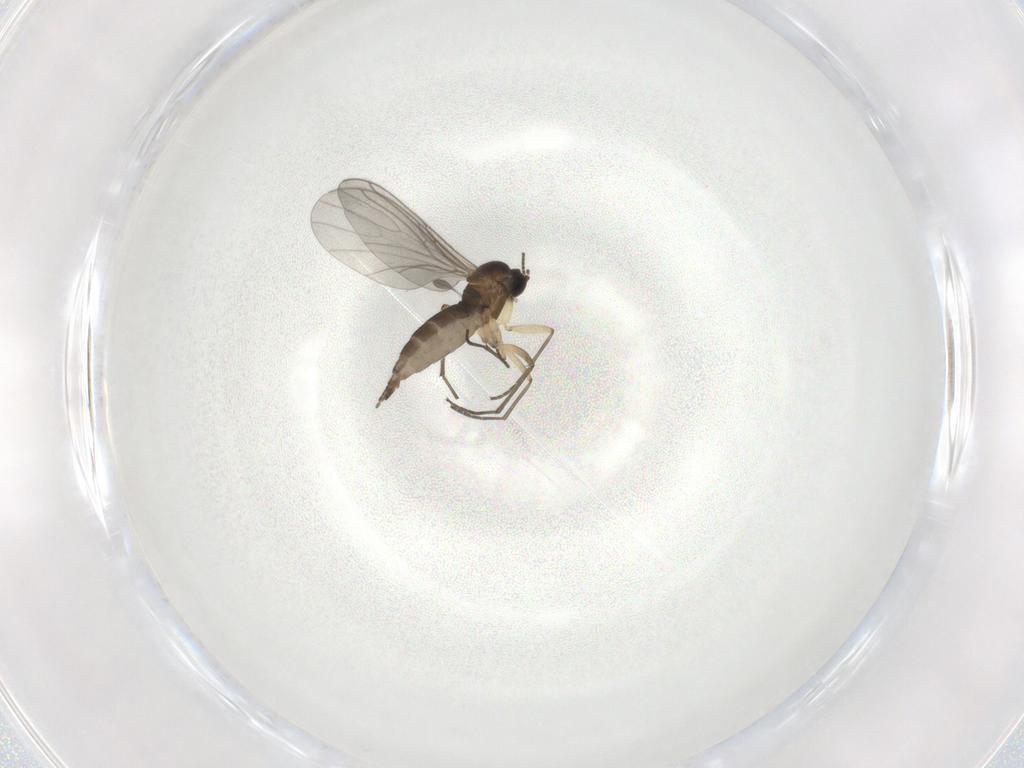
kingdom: Animalia
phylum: Arthropoda
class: Insecta
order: Diptera
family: Sciaridae
